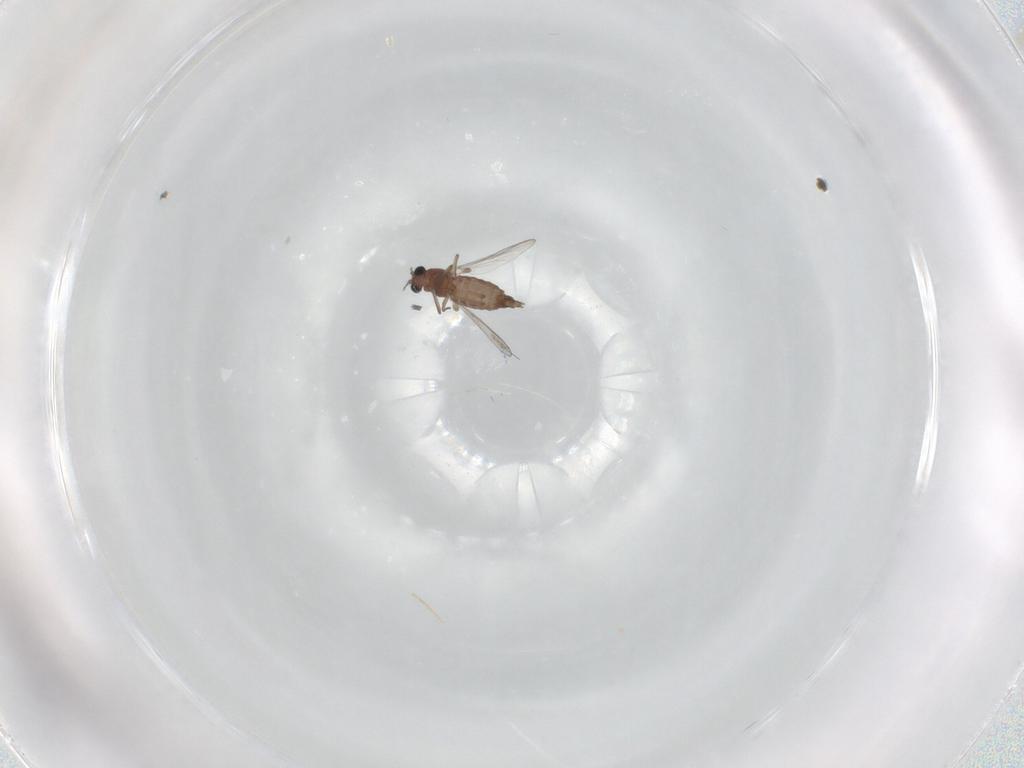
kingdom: Animalia
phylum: Arthropoda
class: Insecta
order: Diptera
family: Chironomidae
